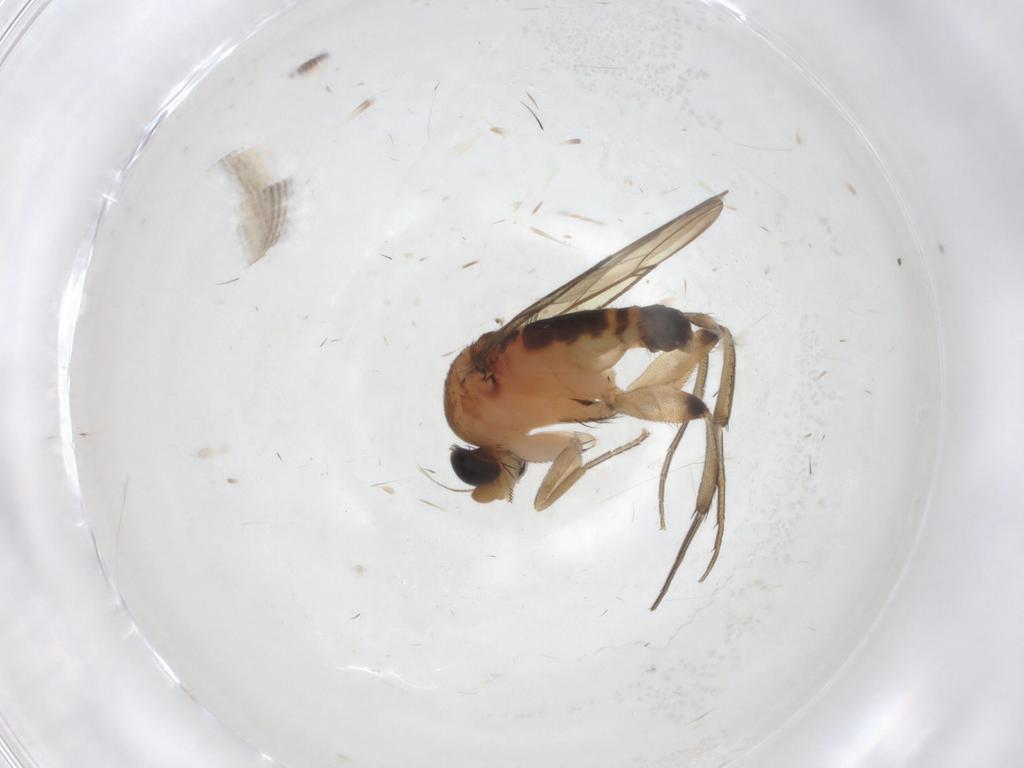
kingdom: Animalia
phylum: Arthropoda
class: Insecta
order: Diptera
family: Phoridae
